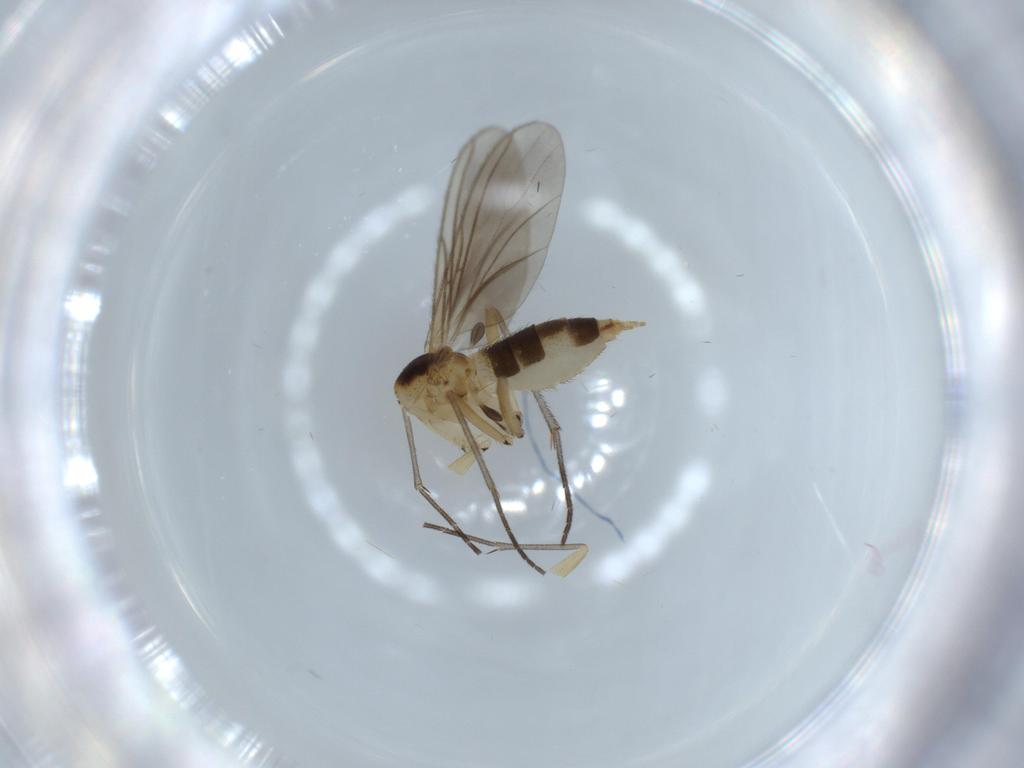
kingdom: Animalia
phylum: Arthropoda
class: Insecta
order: Diptera
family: Sciaridae
